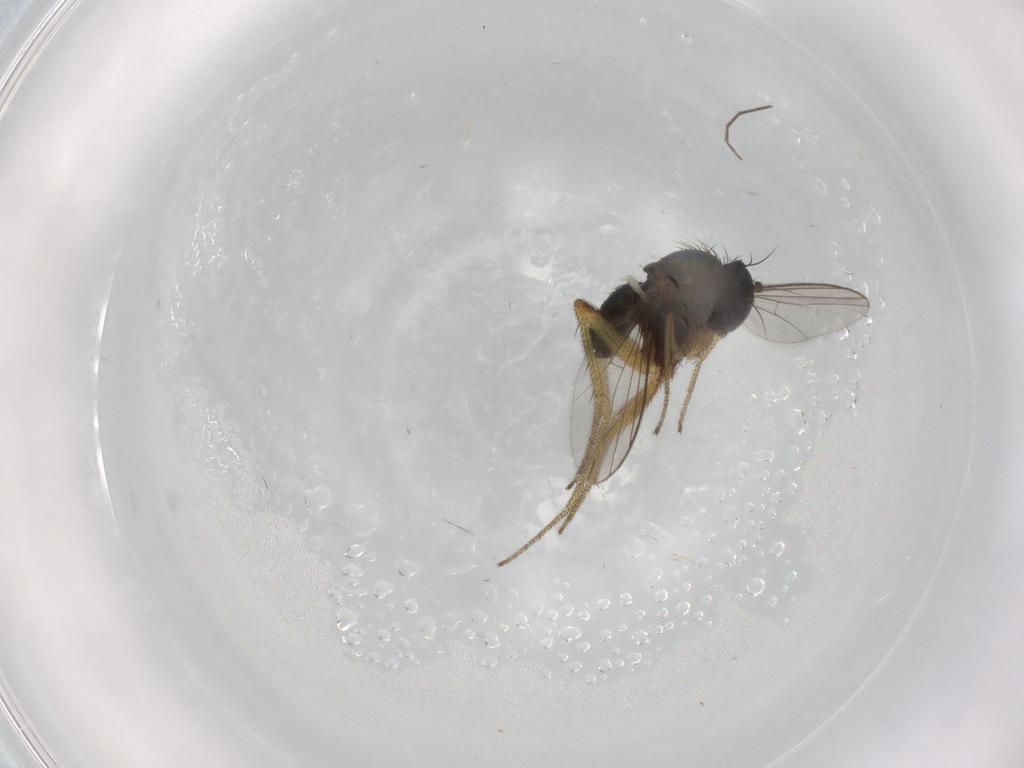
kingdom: Animalia
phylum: Arthropoda
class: Insecta
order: Diptera
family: Chironomidae
